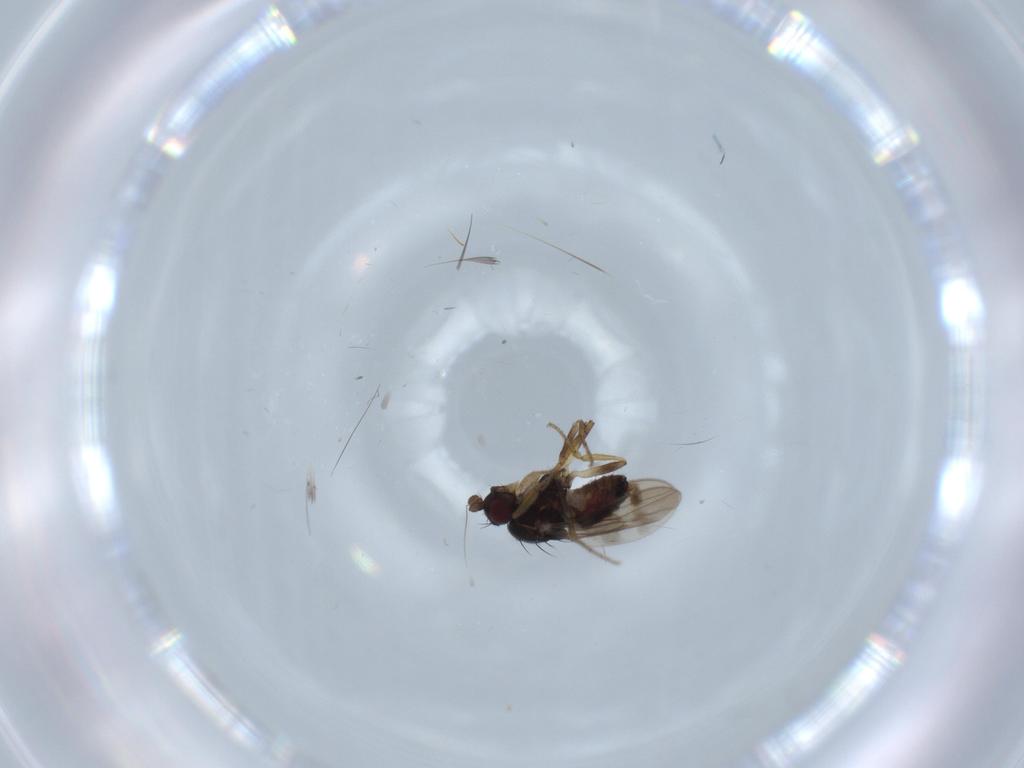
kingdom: Animalia
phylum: Arthropoda
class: Insecta
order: Diptera
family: Sphaeroceridae
